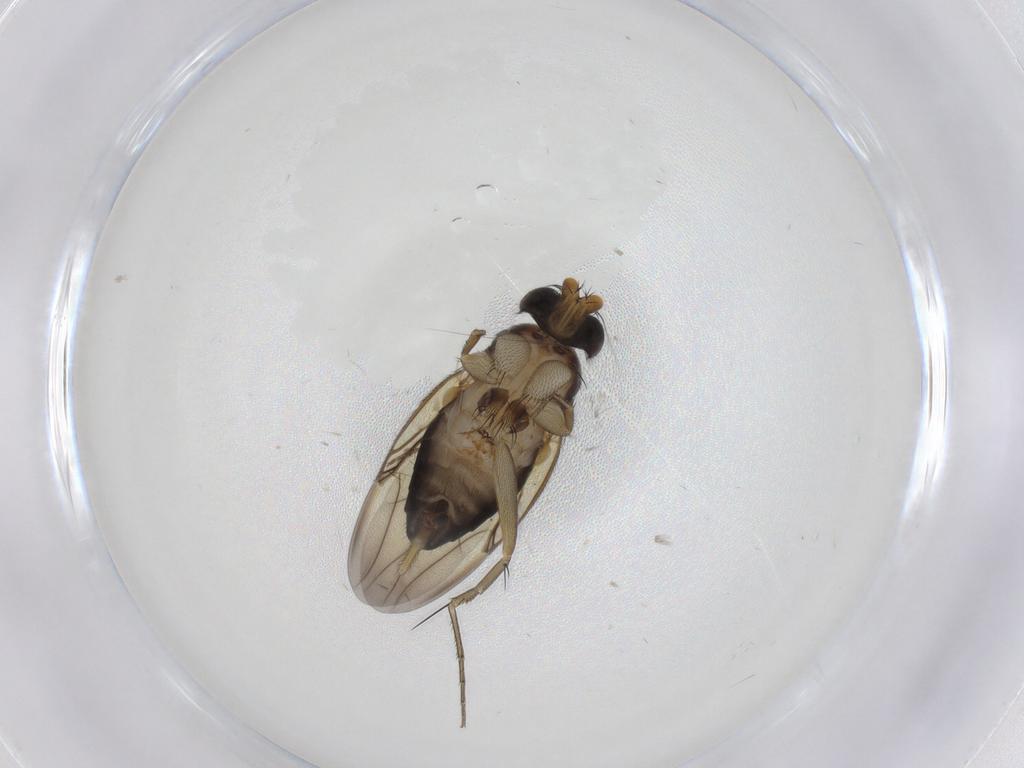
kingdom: Animalia
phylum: Arthropoda
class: Insecta
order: Diptera
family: Phoridae
